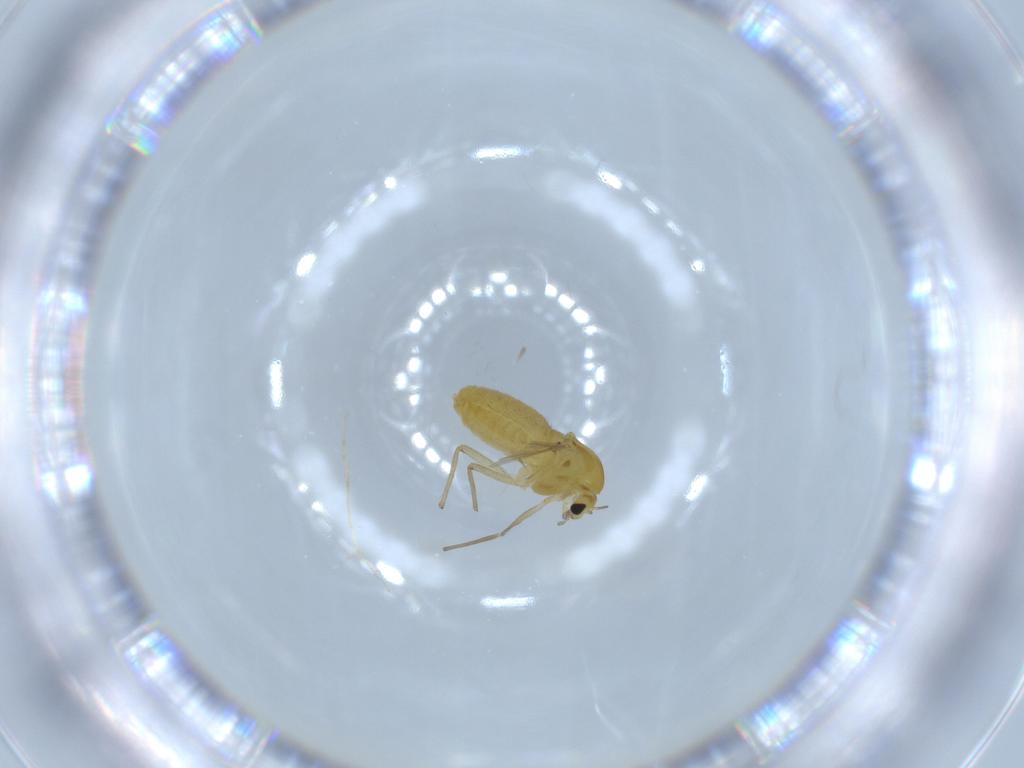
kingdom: Animalia
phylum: Arthropoda
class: Insecta
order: Diptera
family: Chironomidae
